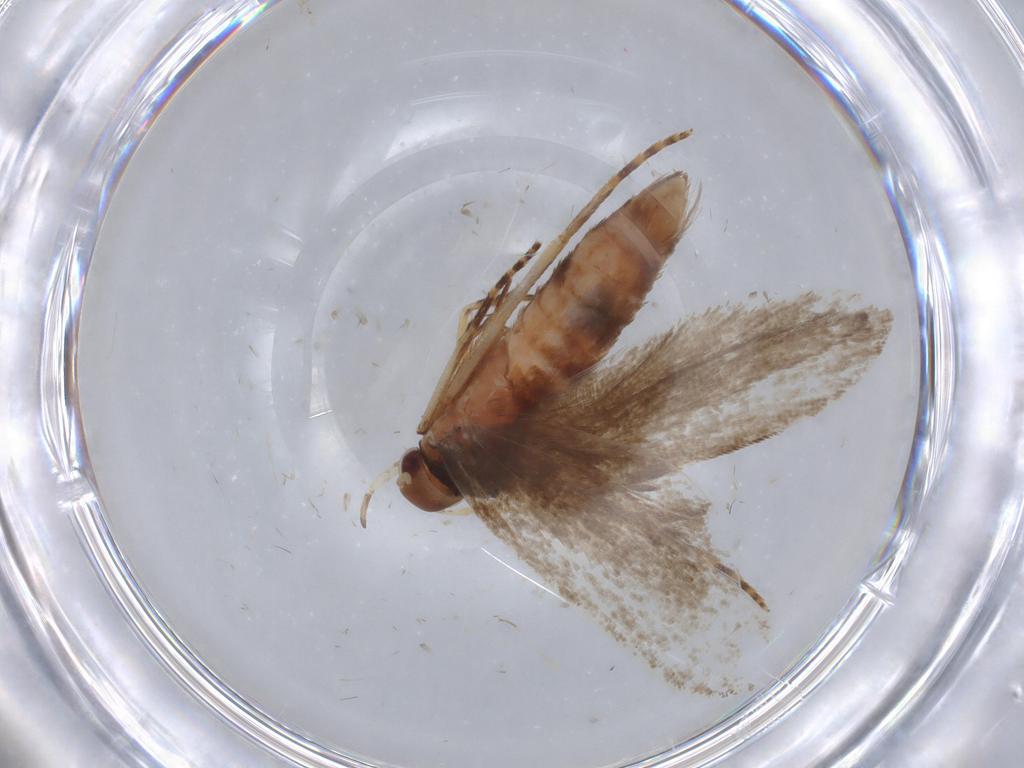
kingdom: Animalia
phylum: Arthropoda
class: Insecta
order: Lepidoptera
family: Gelechiidae
